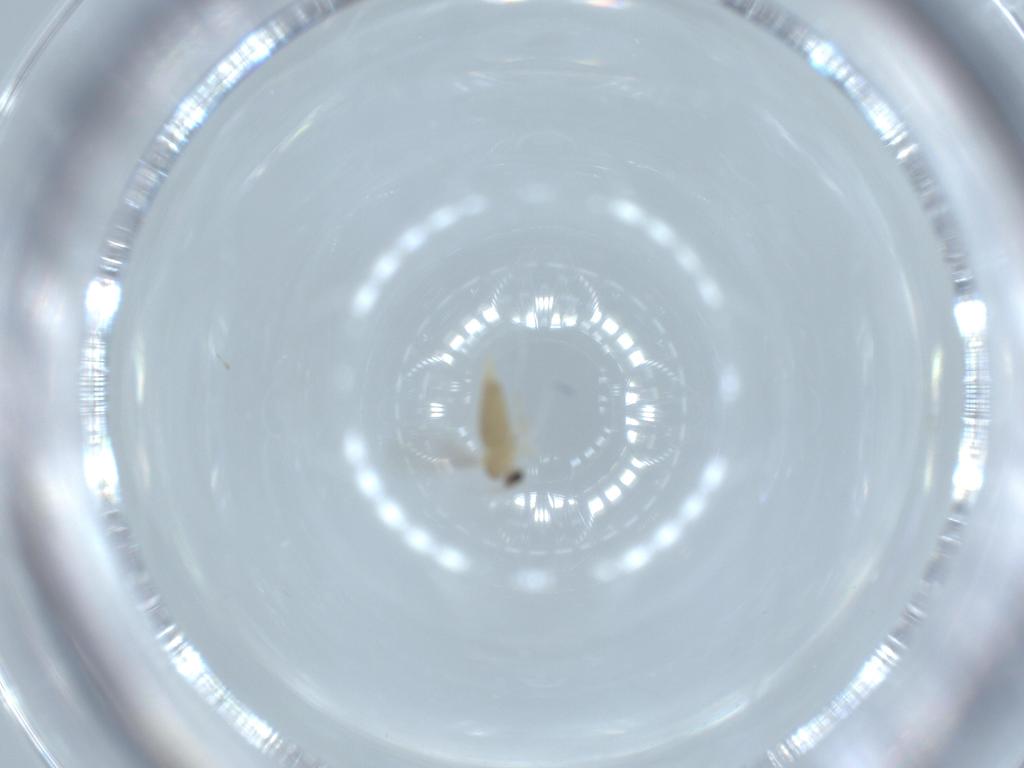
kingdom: Animalia
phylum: Arthropoda
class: Insecta
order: Diptera
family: Cecidomyiidae
